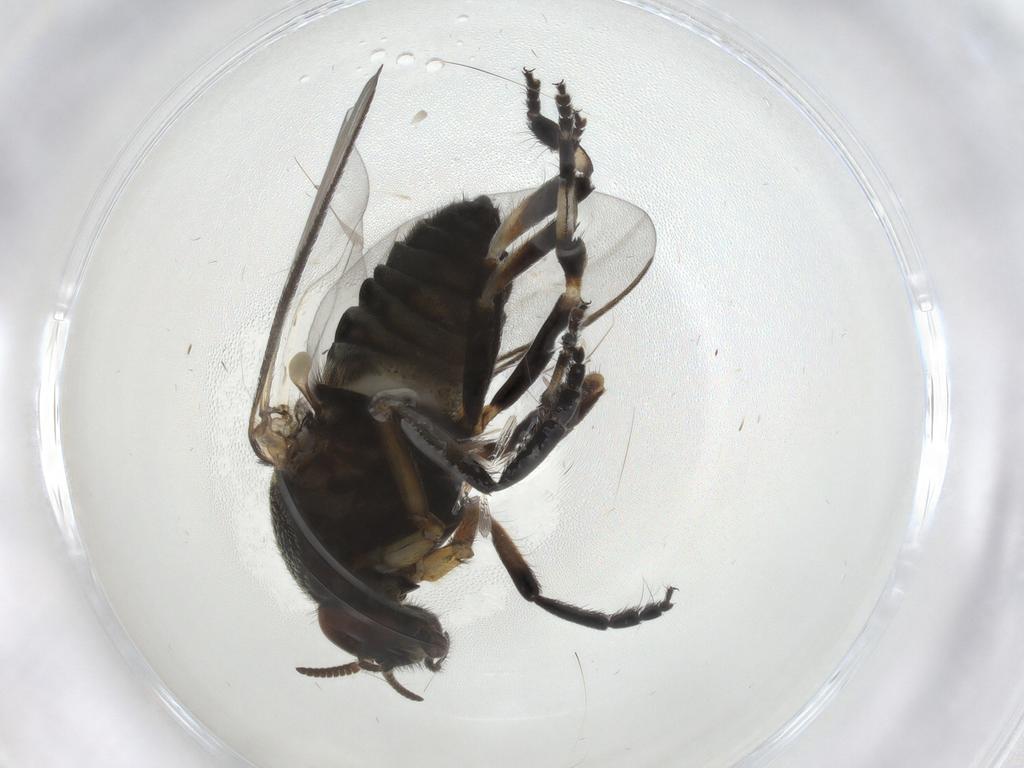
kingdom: Animalia
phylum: Arthropoda
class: Insecta
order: Diptera
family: Simuliidae
